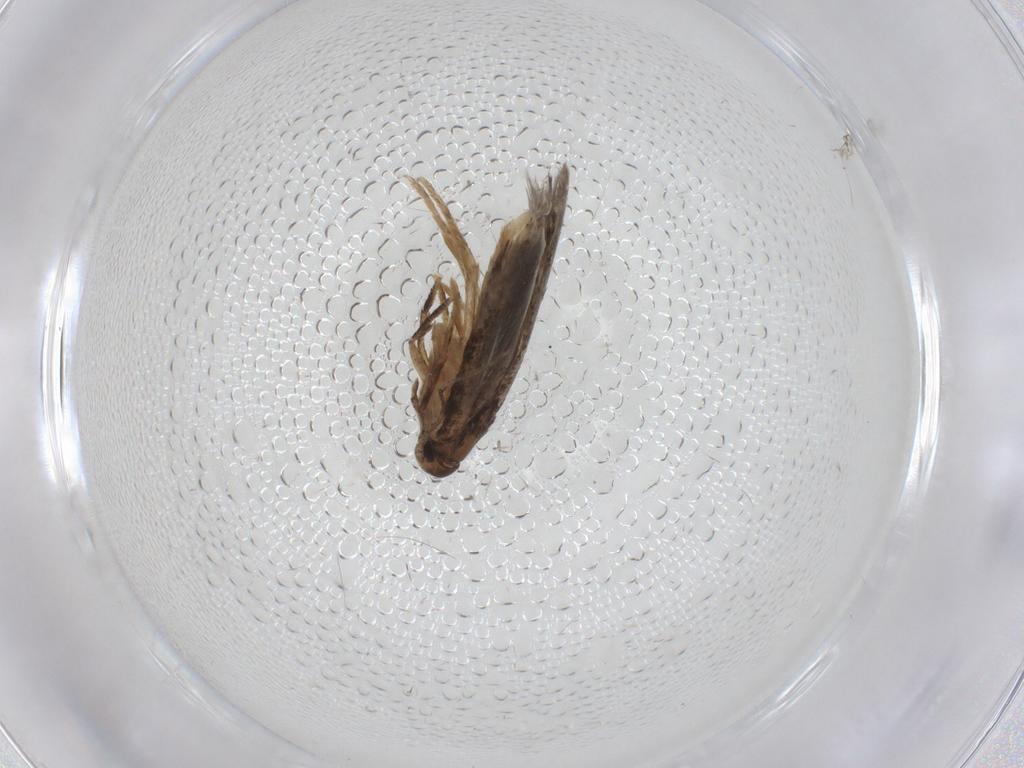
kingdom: Animalia
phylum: Arthropoda
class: Insecta
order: Lepidoptera
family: Elachistidae
